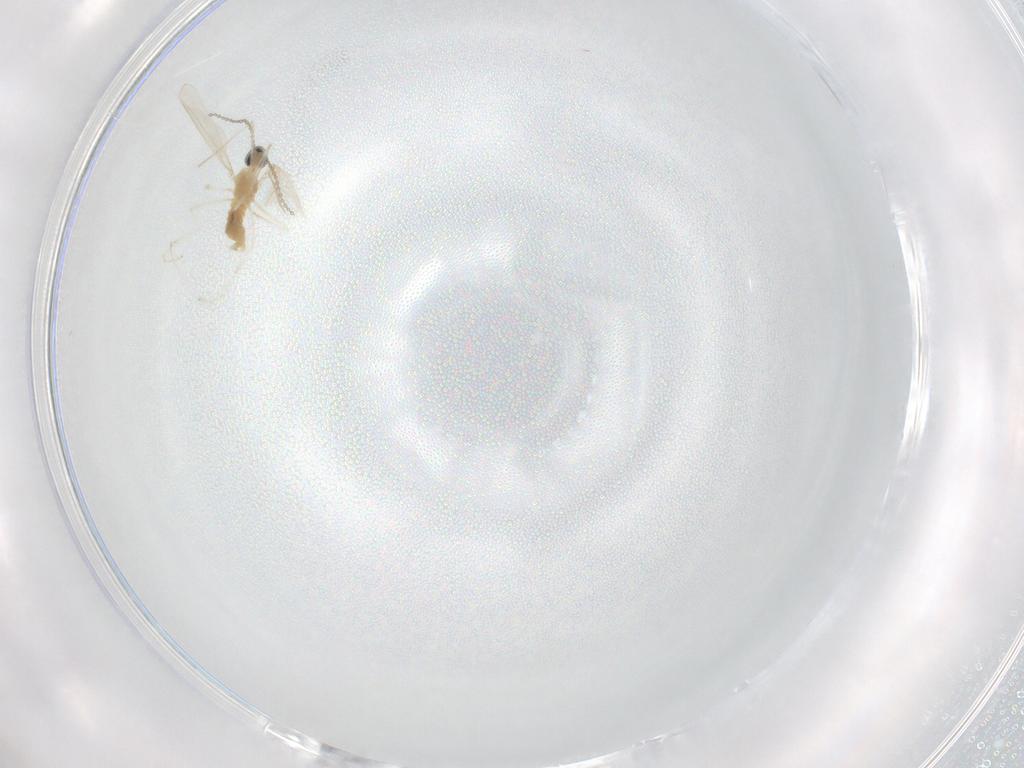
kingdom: Animalia
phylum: Arthropoda
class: Insecta
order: Diptera
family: Cecidomyiidae
